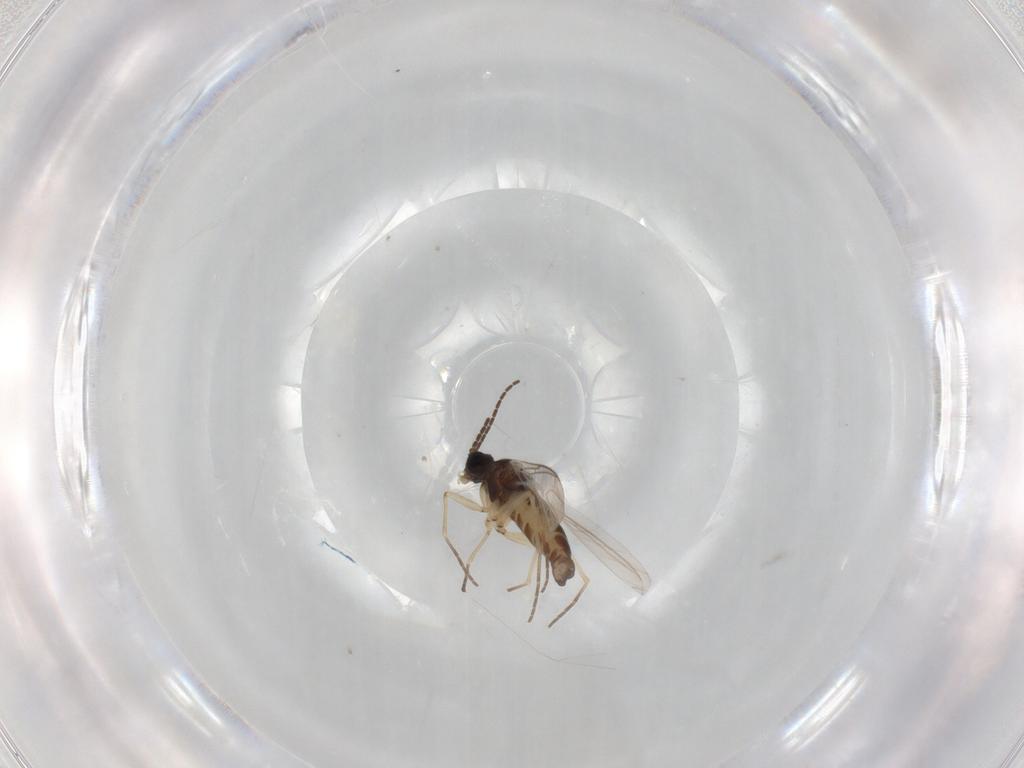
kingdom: Animalia
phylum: Arthropoda
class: Insecta
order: Diptera
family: Sciaridae
